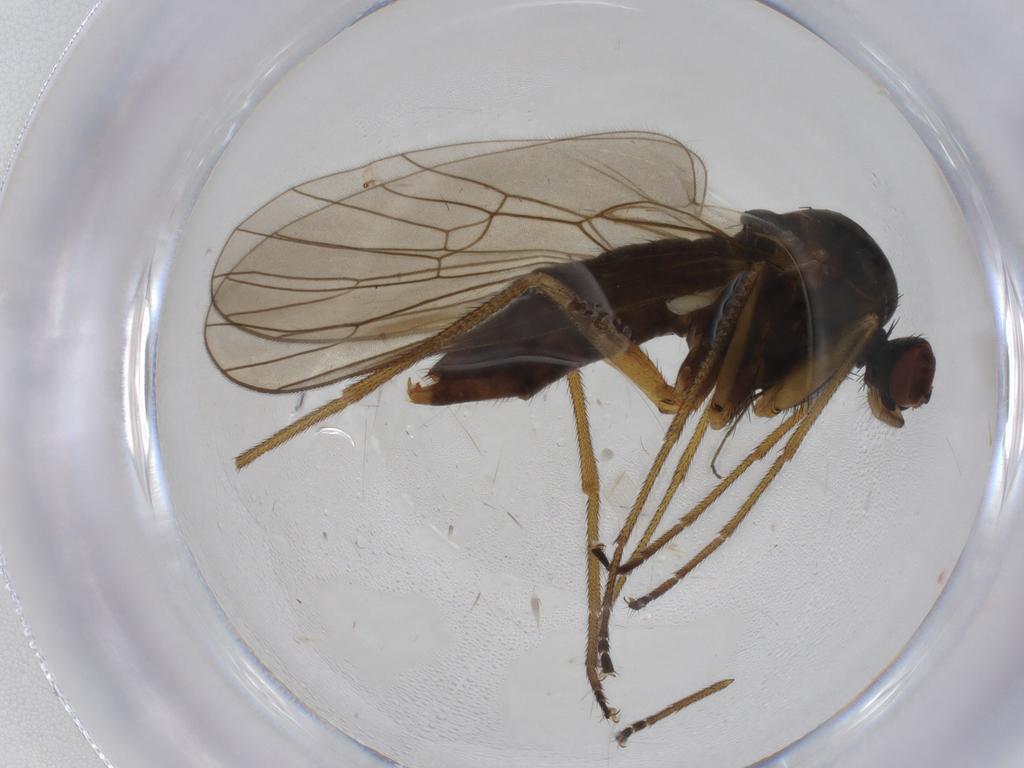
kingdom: Animalia
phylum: Arthropoda
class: Insecta
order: Diptera
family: Brachystomatidae
